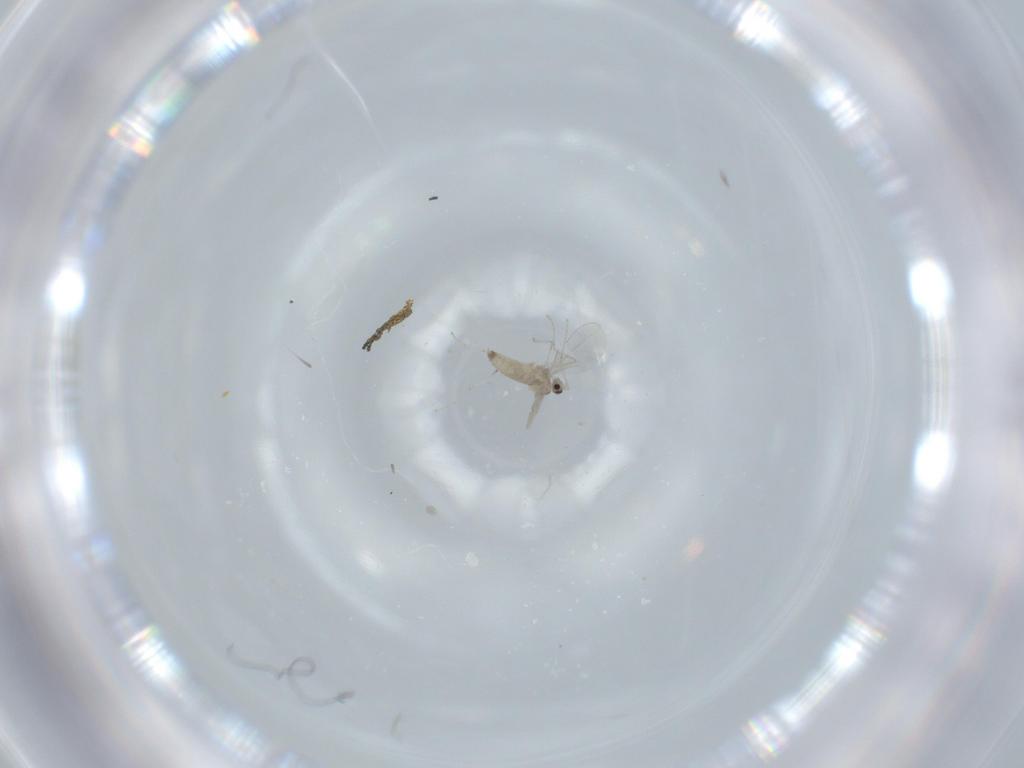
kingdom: Animalia
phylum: Arthropoda
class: Insecta
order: Diptera
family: Cecidomyiidae
